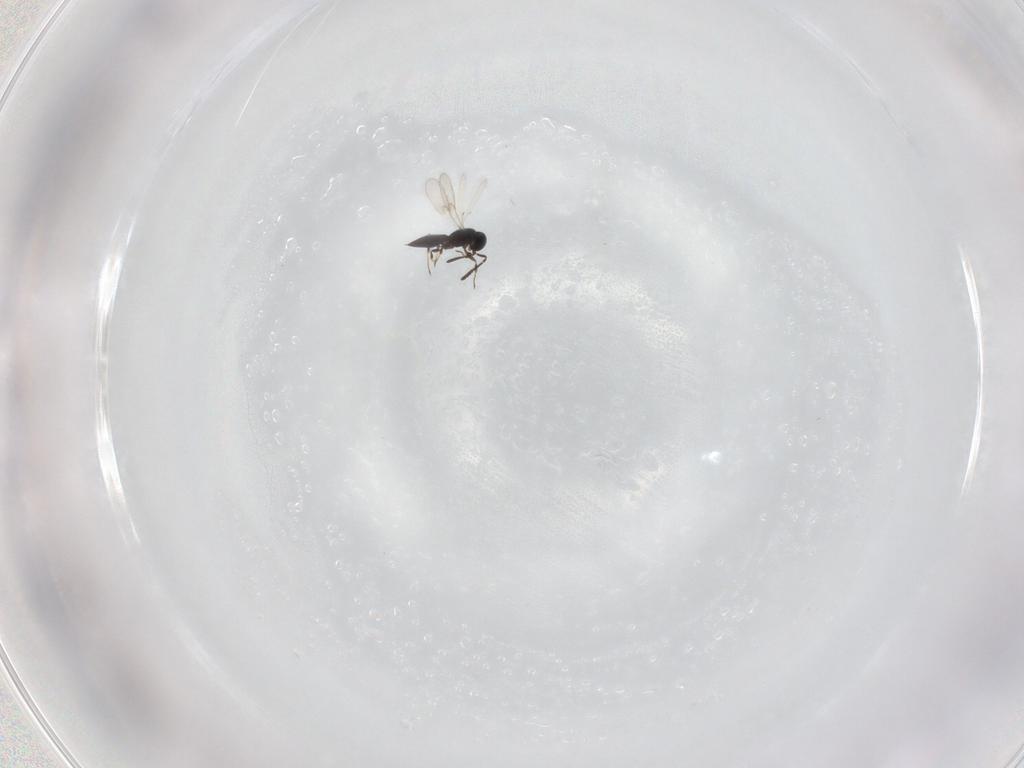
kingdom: Animalia
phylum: Arthropoda
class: Insecta
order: Hymenoptera
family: Scelionidae
